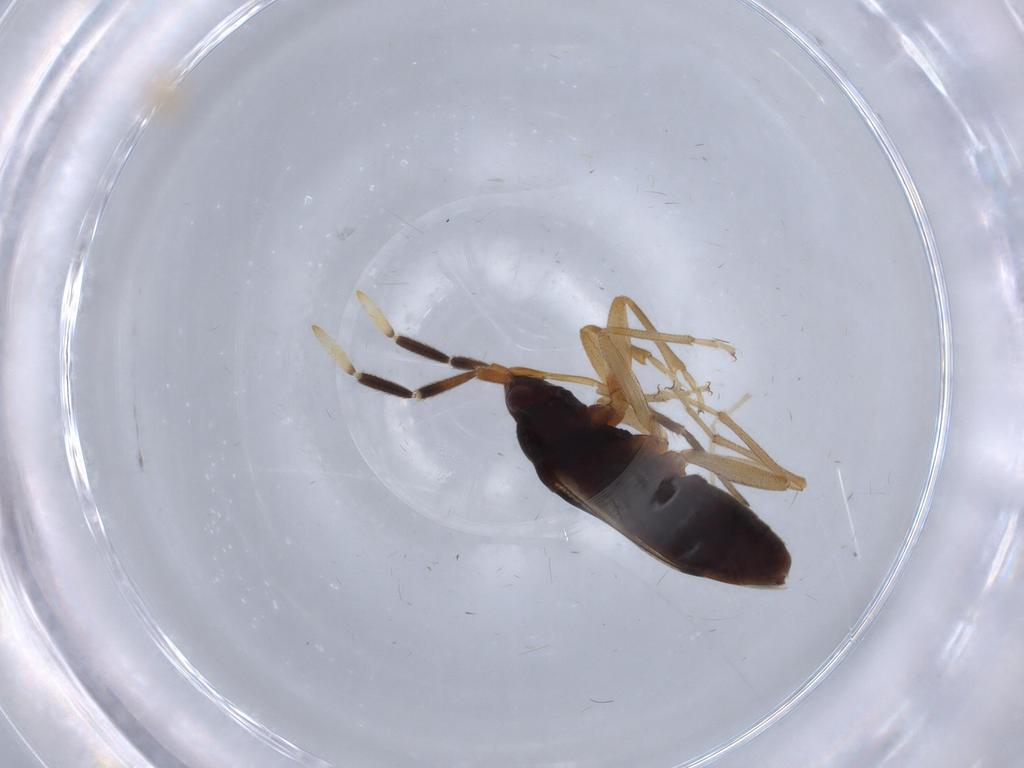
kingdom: Animalia
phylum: Arthropoda
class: Insecta
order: Hemiptera
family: Rhyparochromidae
